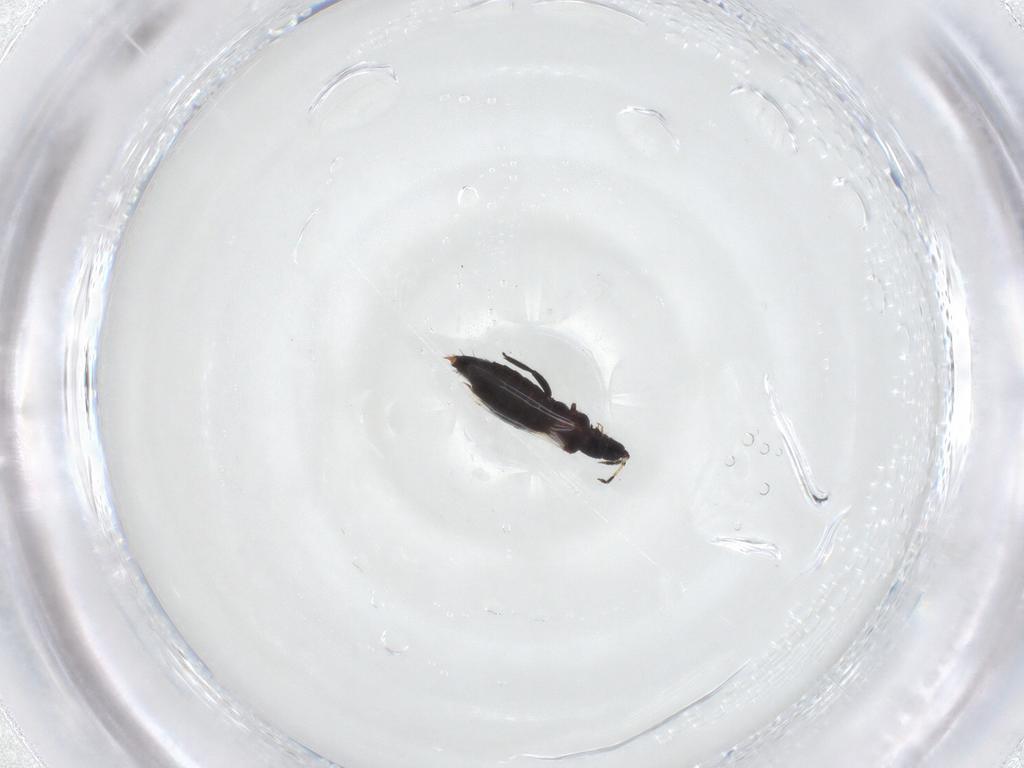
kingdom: Animalia
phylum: Arthropoda
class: Insecta
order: Thysanoptera
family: Aeolothripidae
